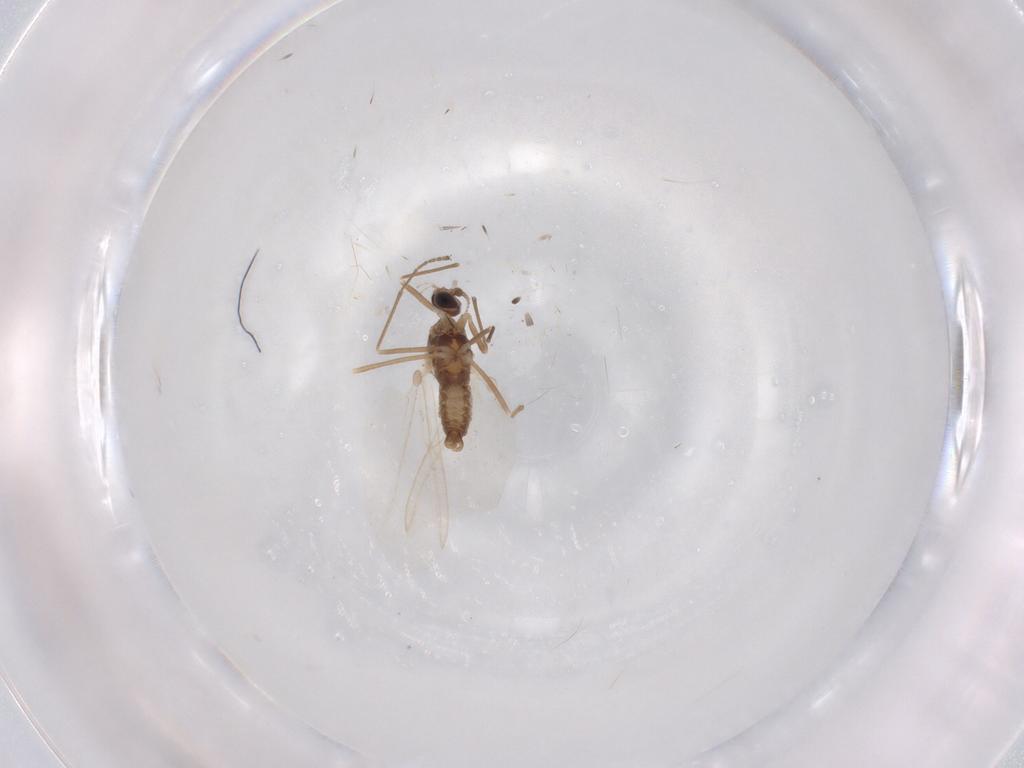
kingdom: Animalia
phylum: Arthropoda
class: Insecta
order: Diptera
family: Cecidomyiidae
